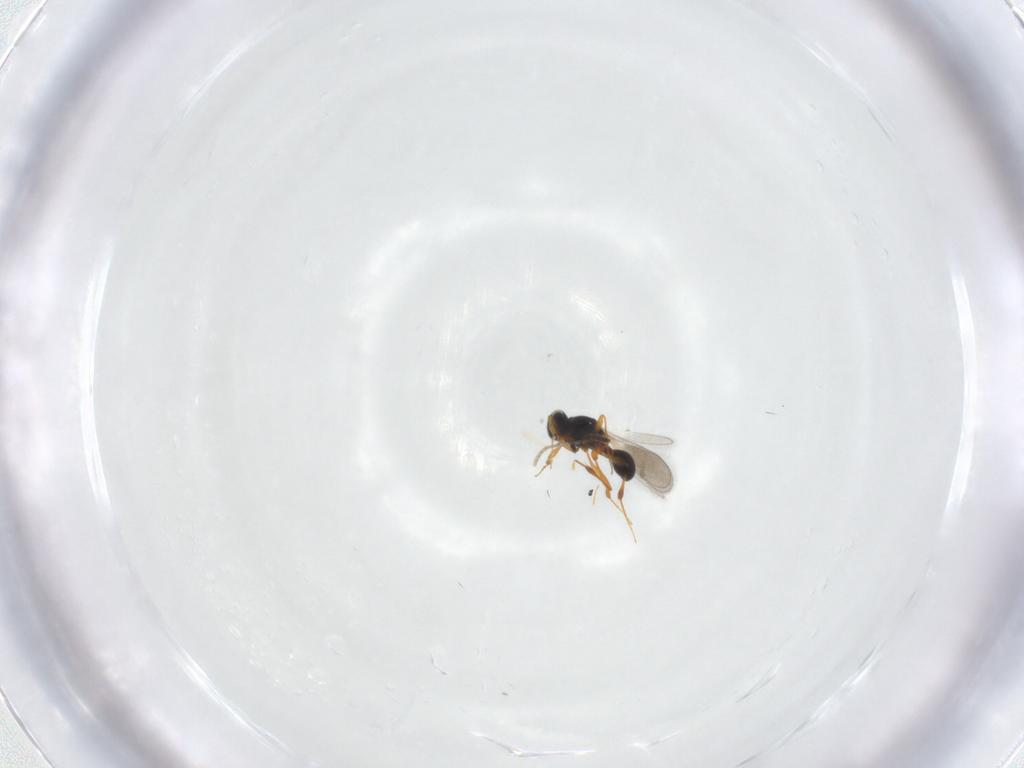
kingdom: Animalia
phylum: Arthropoda
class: Insecta
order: Hymenoptera
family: Platygastridae
